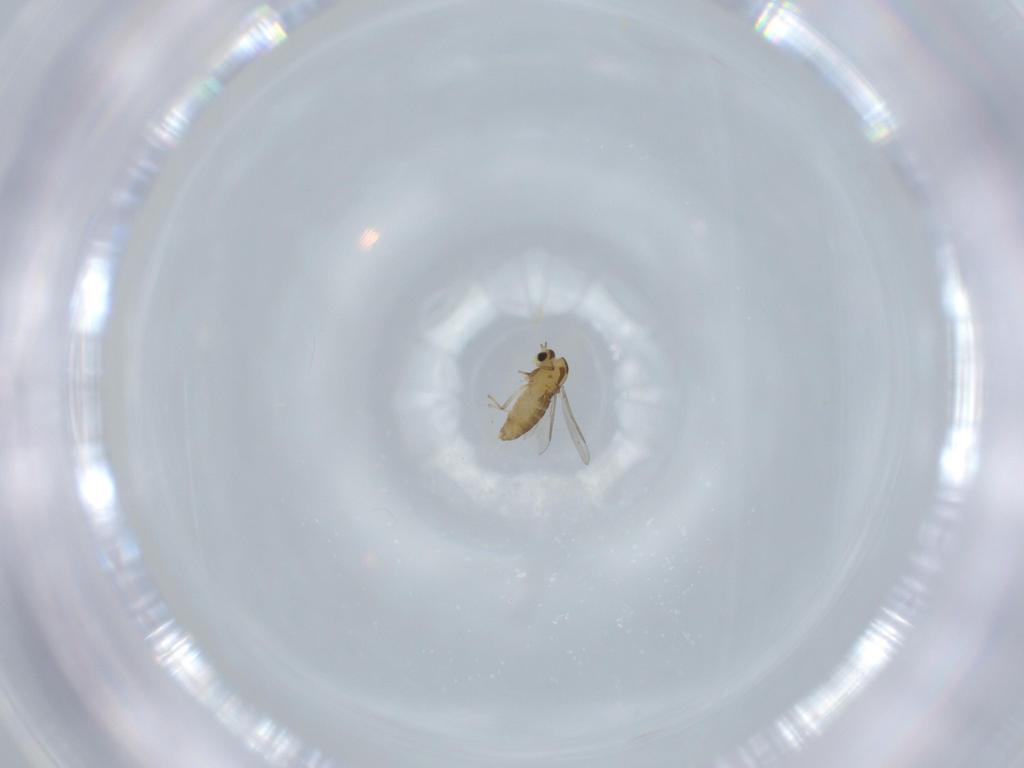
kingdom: Animalia
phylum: Arthropoda
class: Insecta
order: Diptera
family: Chironomidae
